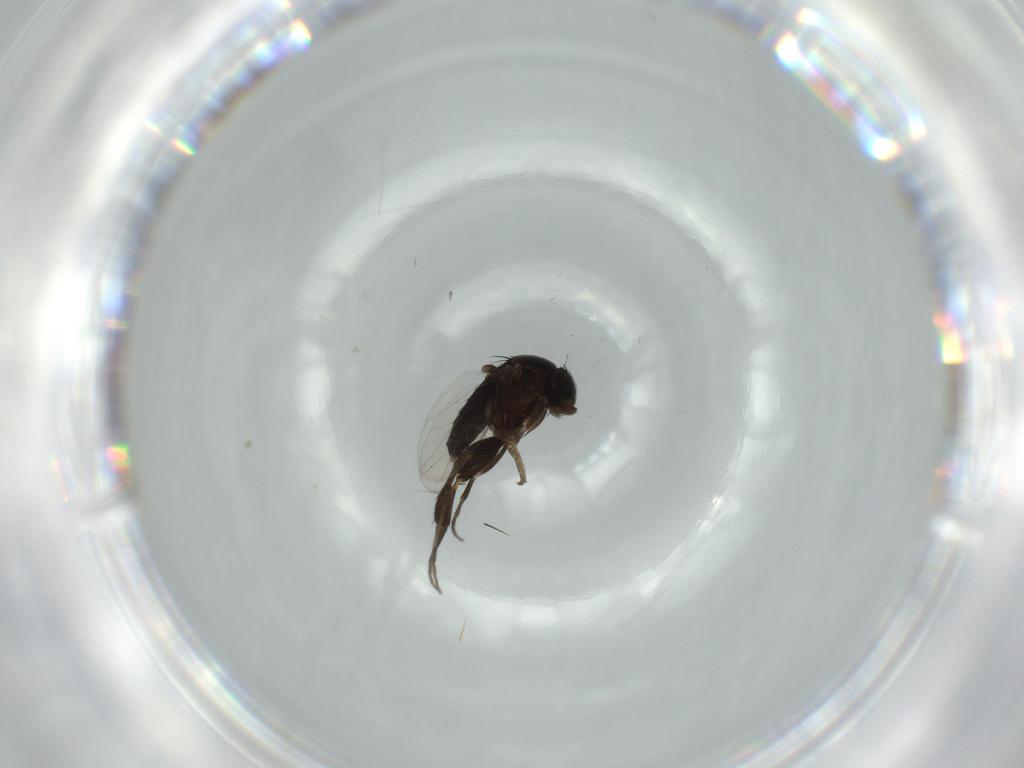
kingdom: Animalia
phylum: Arthropoda
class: Insecta
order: Diptera
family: Phoridae
